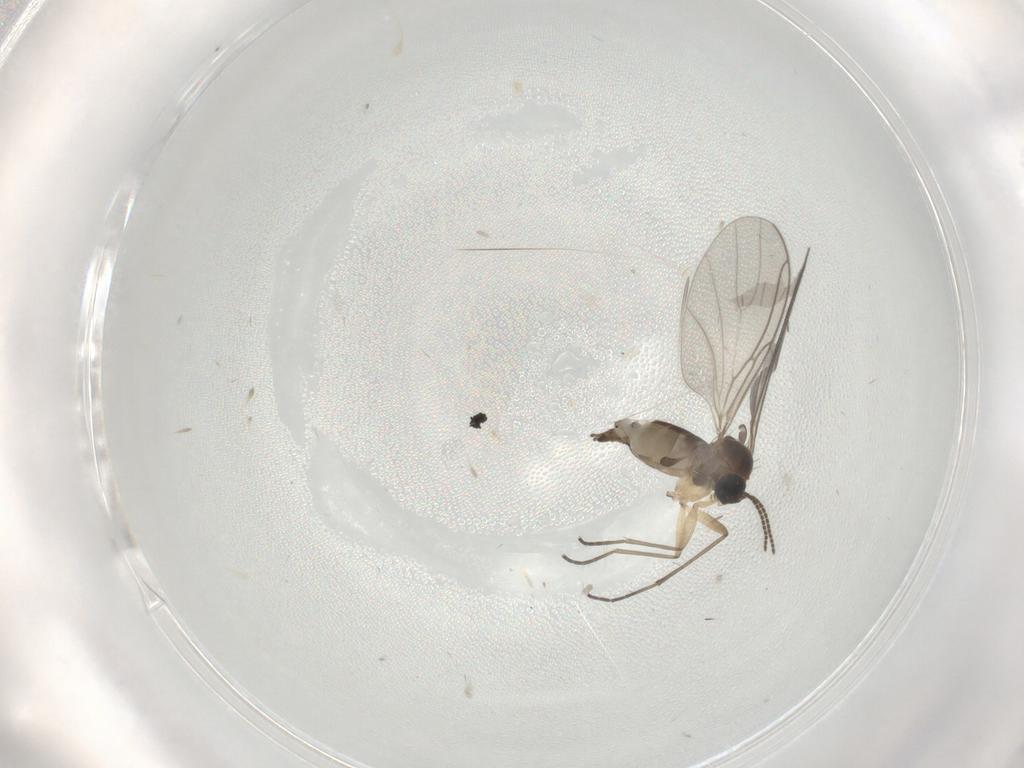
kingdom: Animalia
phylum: Arthropoda
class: Insecta
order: Diptera
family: Sciaridae
